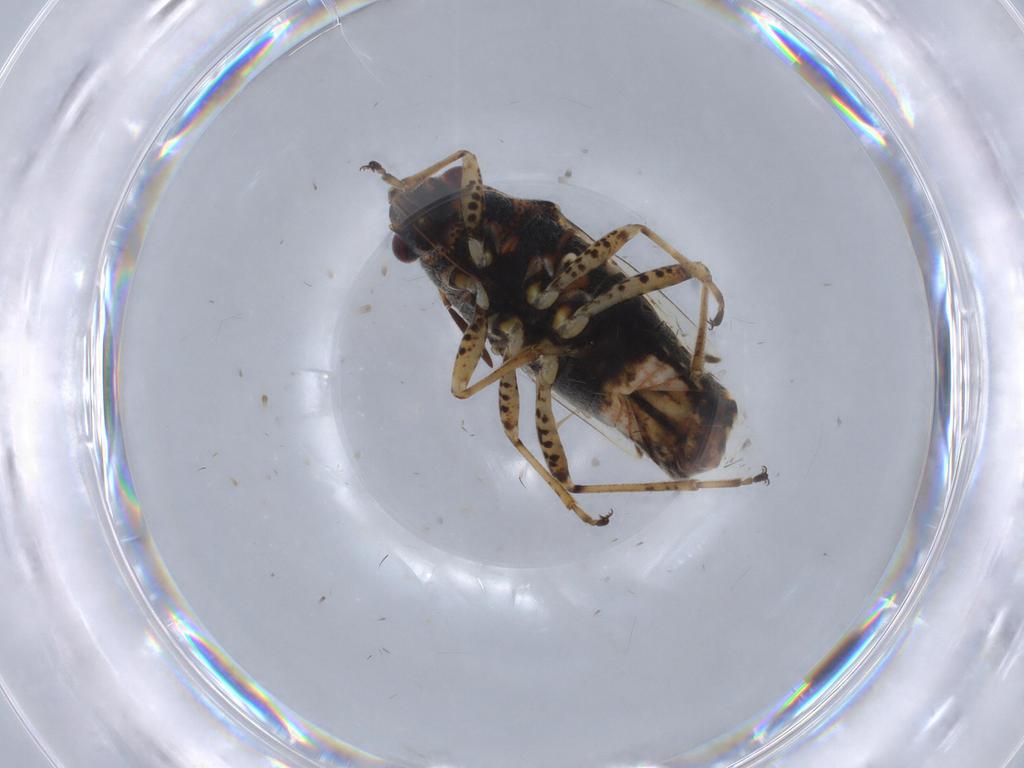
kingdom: Animalia
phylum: Arthropoda
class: Insecta
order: Hemiptera
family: Lygaeidae
